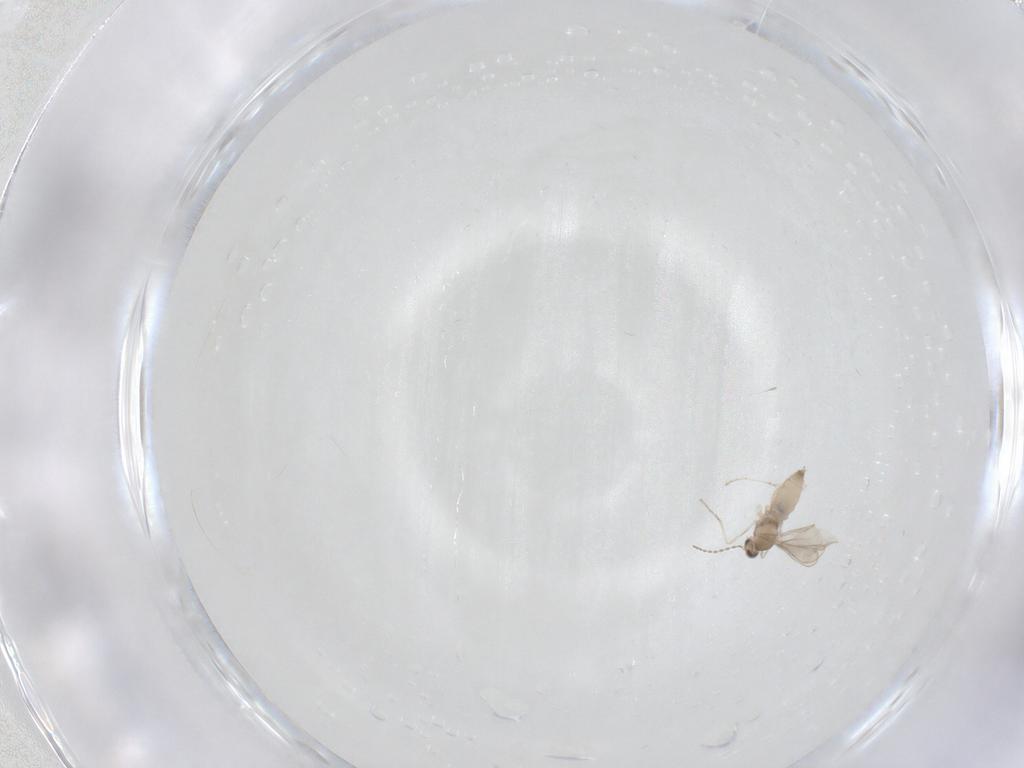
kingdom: Animalia
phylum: Arthropoda
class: Insecta
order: Diptera
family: Cecidomyiidae
